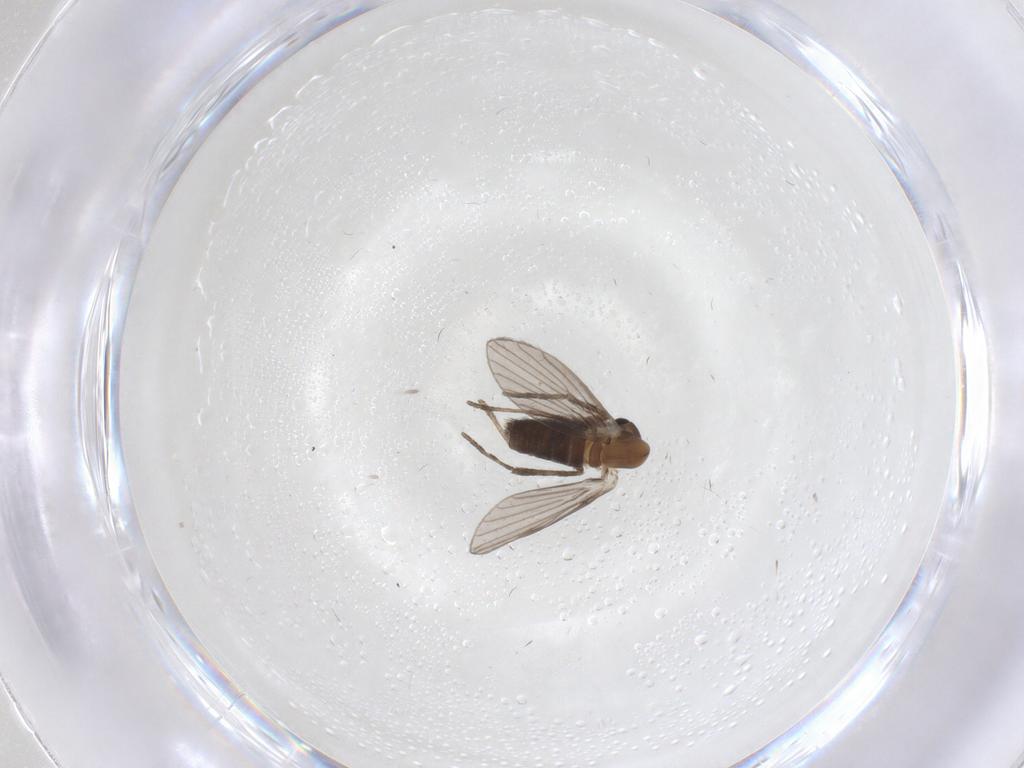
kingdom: Animalia
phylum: Arthropoda
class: Insecta
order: Diptera
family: Psychodidae
